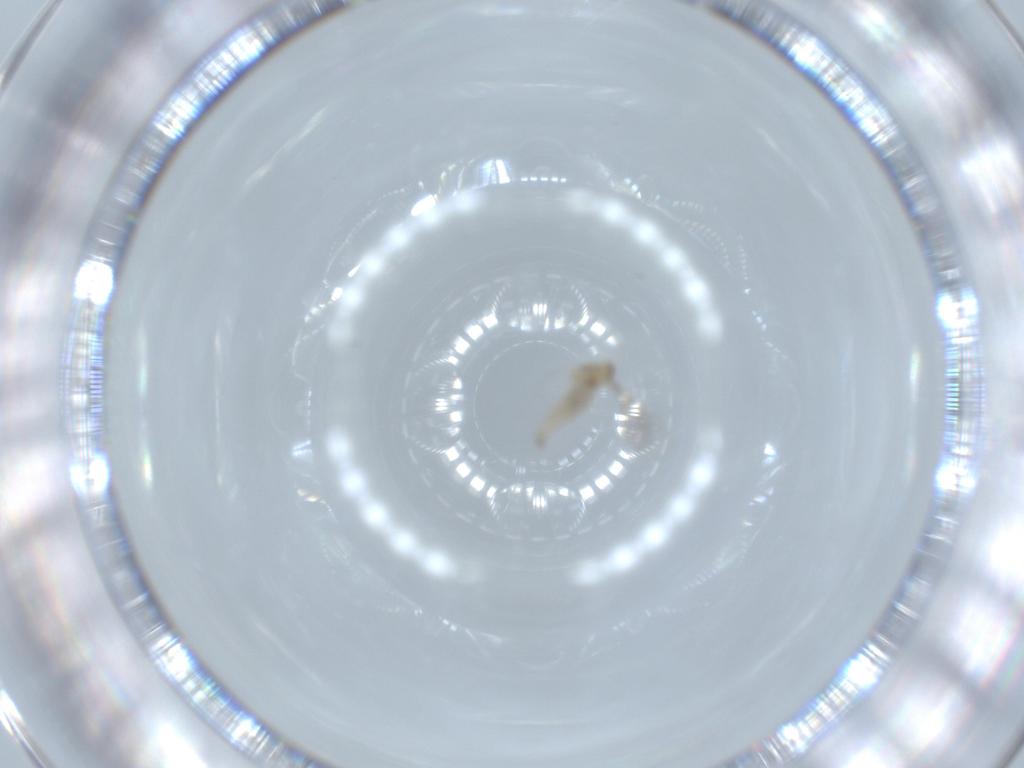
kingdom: Animalia
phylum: Arthropoda
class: Insecta
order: Diptera
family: Cecidomyiidae
